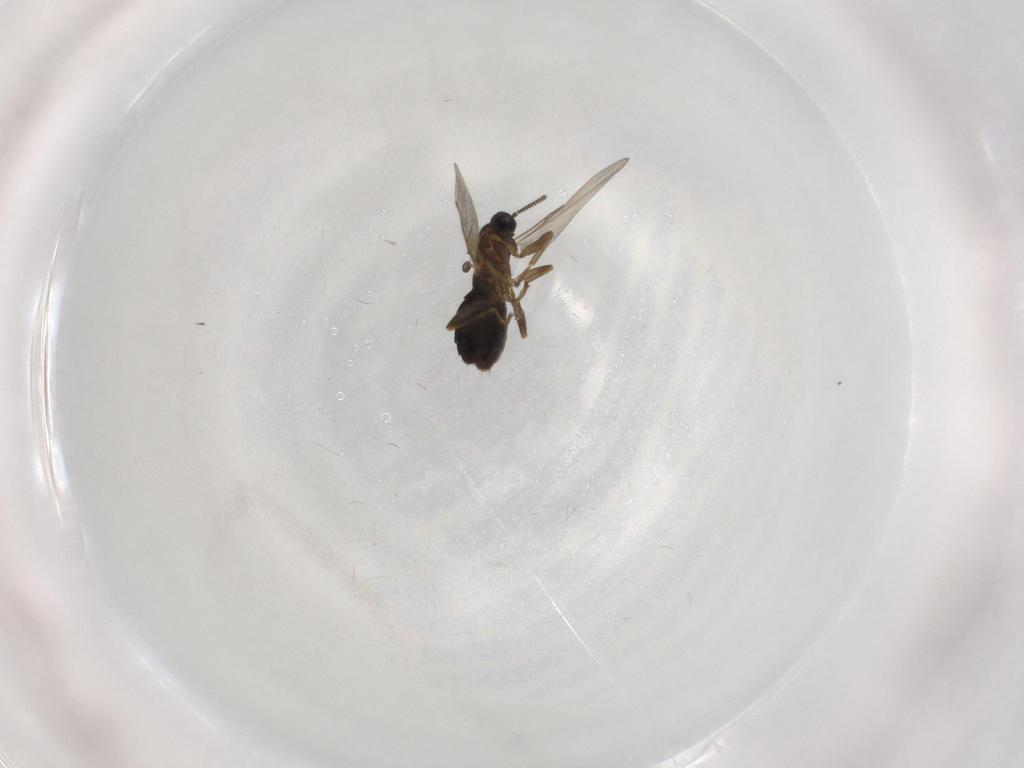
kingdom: Animalia
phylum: Arthropoda
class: Insecta
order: Diptera
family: Scatopsidae
